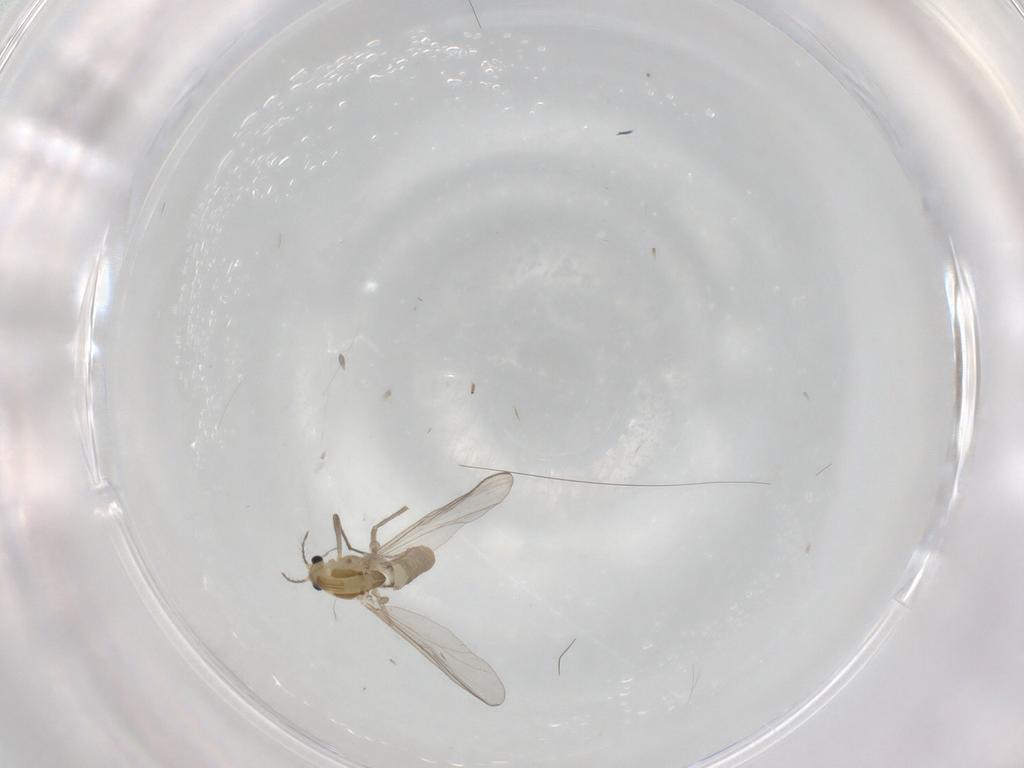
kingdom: Animalia
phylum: Arthropoda
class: Insecta
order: Diptera
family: Chironomidae
